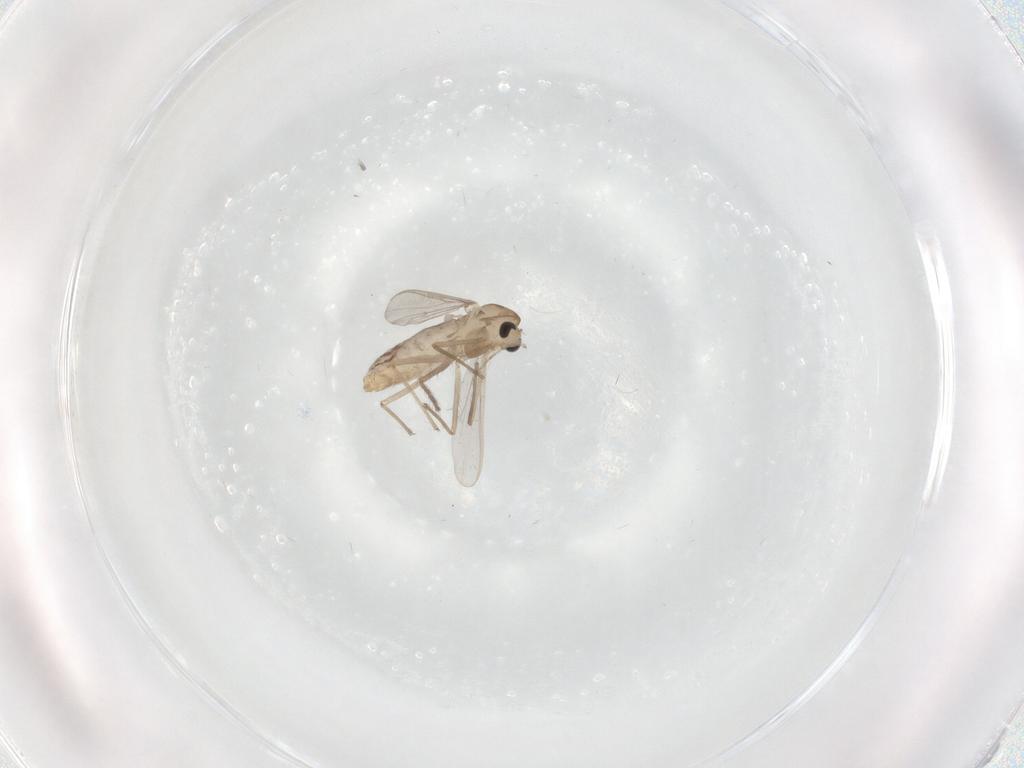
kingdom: Animalia
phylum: Arthropoda
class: Insecta
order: Diptera
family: Chironomidae
